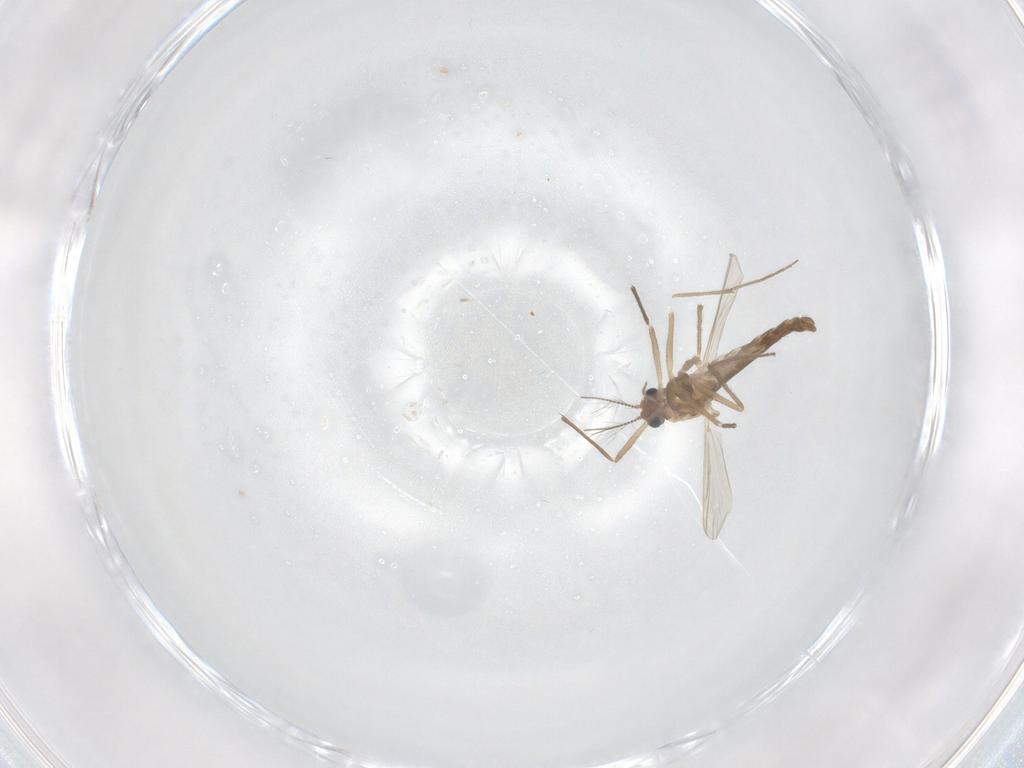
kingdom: Animalia
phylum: Arthropoda
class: Insecta
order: Diptera
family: Chironomidae
